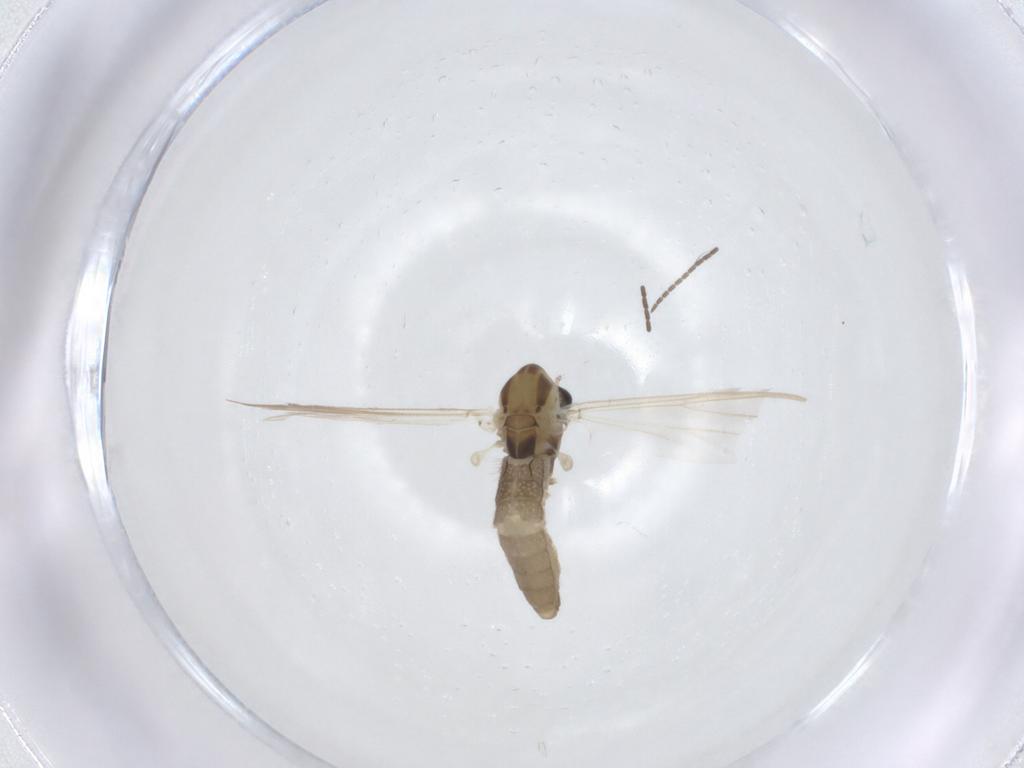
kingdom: Animalia
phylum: Arthropoda
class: Insecta
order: Diptera
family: Chironomidae
